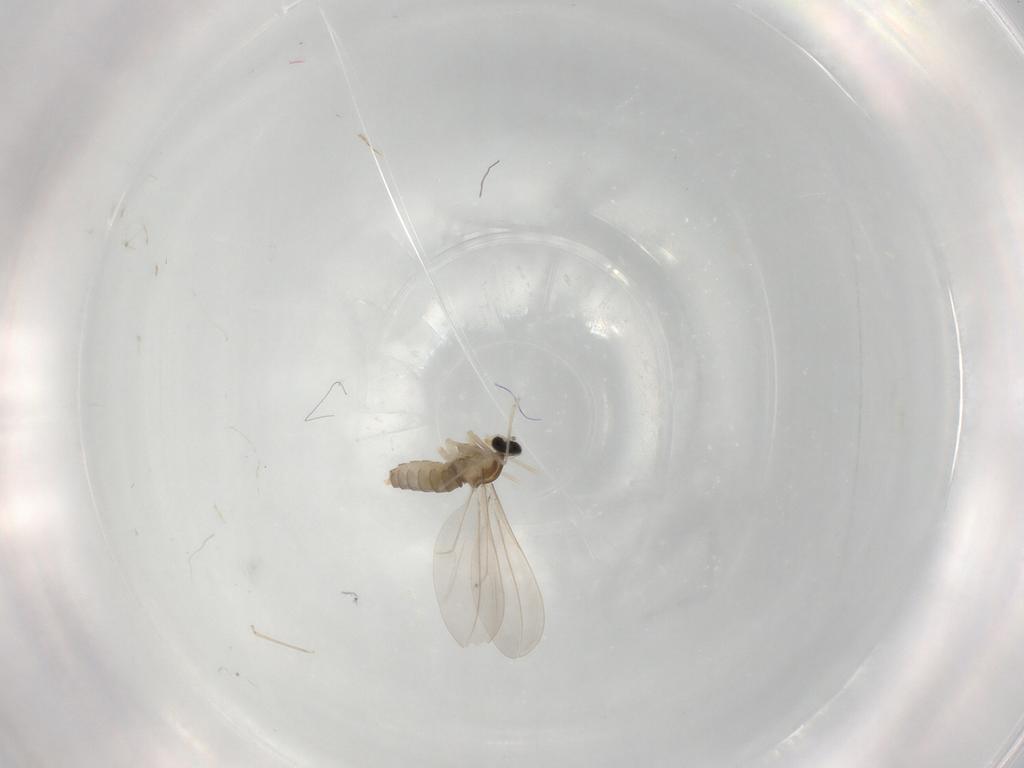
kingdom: Animalia
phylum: Arthropoda
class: Insecta
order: Diptera
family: Cecidomyiidae
